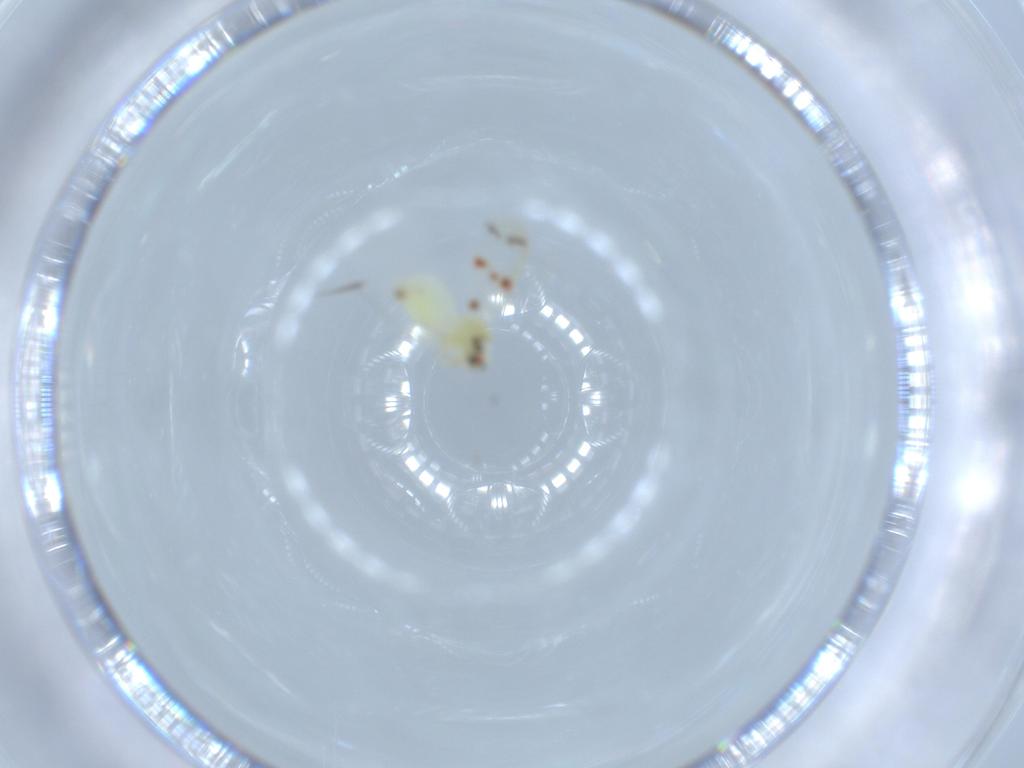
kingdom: Animalia
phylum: Arthropoda
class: Insecta
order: Hemiptera
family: Aleyrodidae
